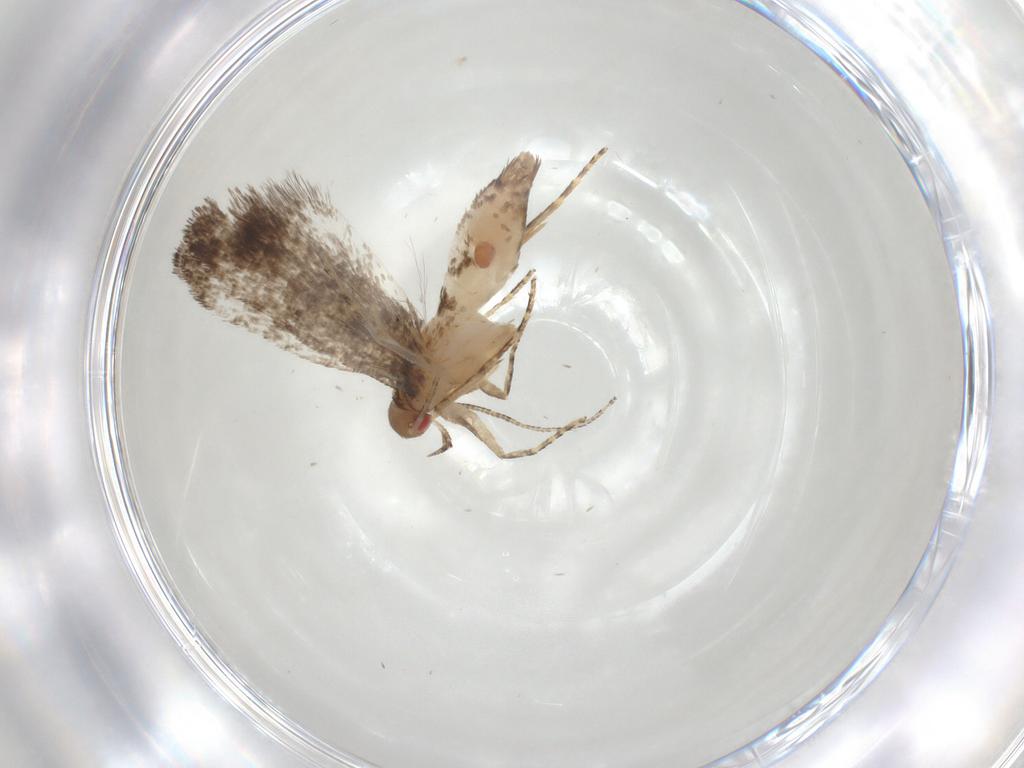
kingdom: Animalia
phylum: Arthropoda
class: Insecta
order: Lepidoptera
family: Gelechiidae
